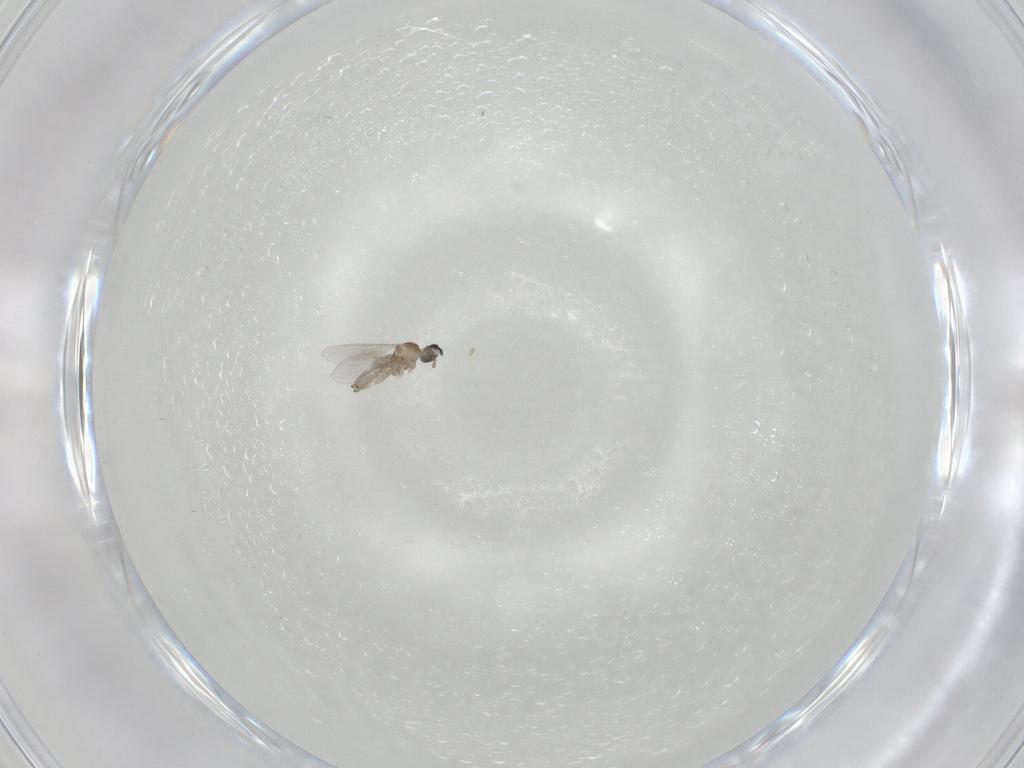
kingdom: Animalia
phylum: Arthropoda
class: Insecta
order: Diptera
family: Cecidomyiidae
